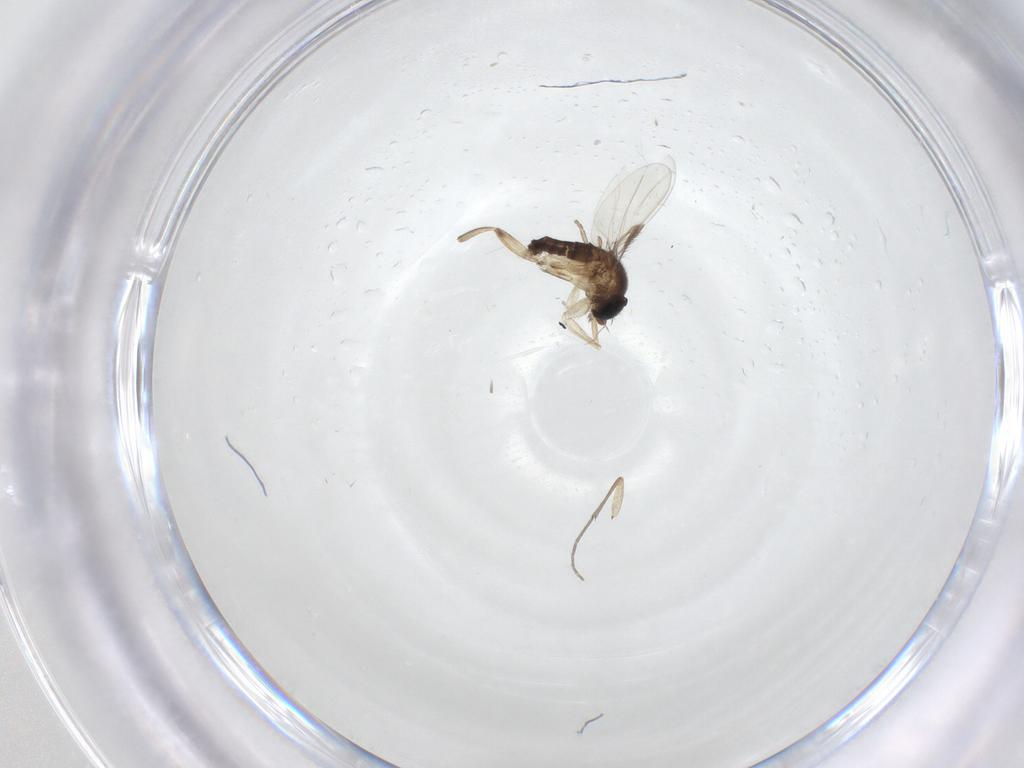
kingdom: Animalia
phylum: Arthropoda
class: Insecta
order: Diptera
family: Phoridae
